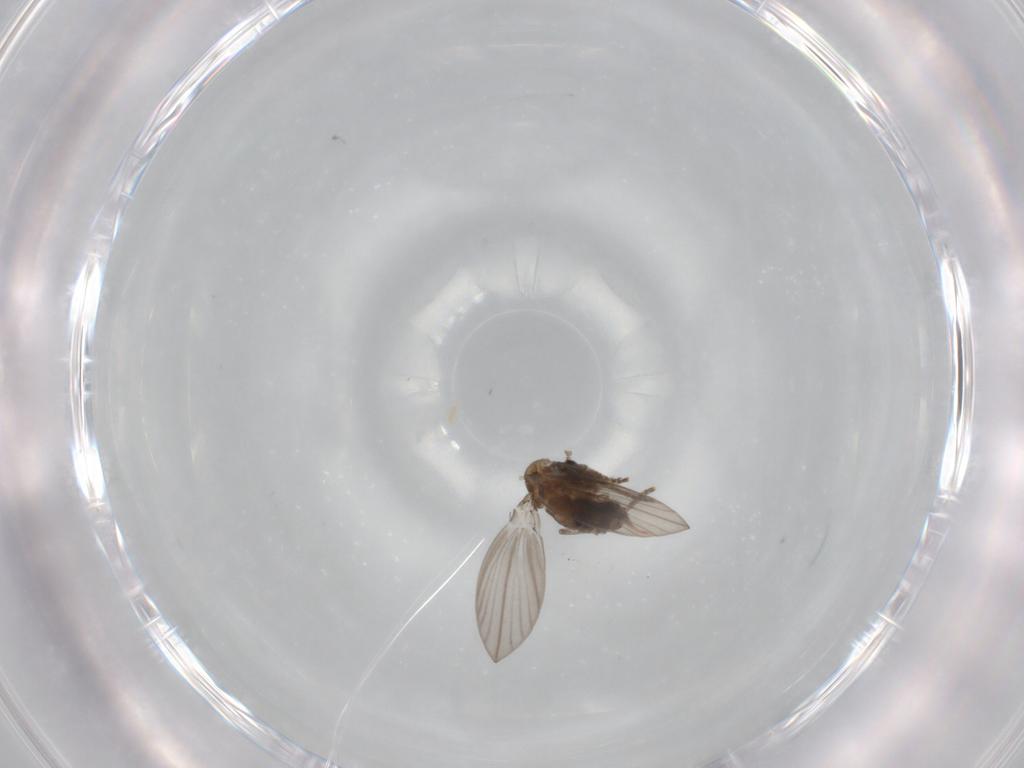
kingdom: Animalia
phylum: Arthropoda
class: Insecta
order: Diptera
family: Psychodidae
